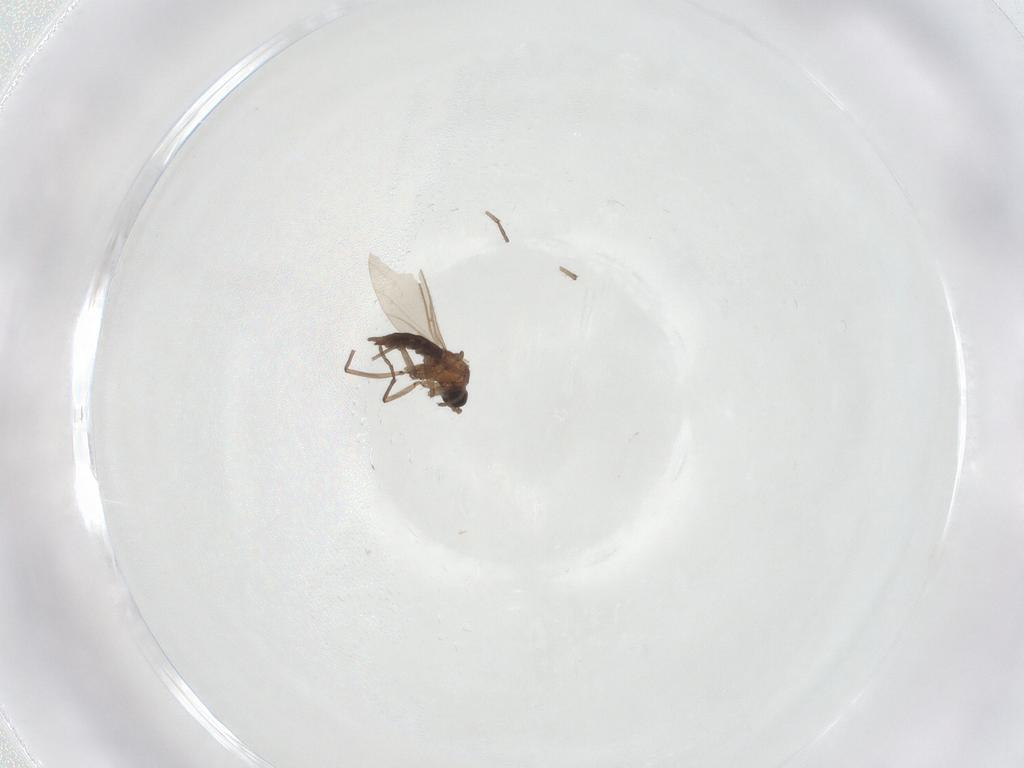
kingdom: Animalia
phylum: Arthropoda
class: Insecta
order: Diptera
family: Sciaridae
